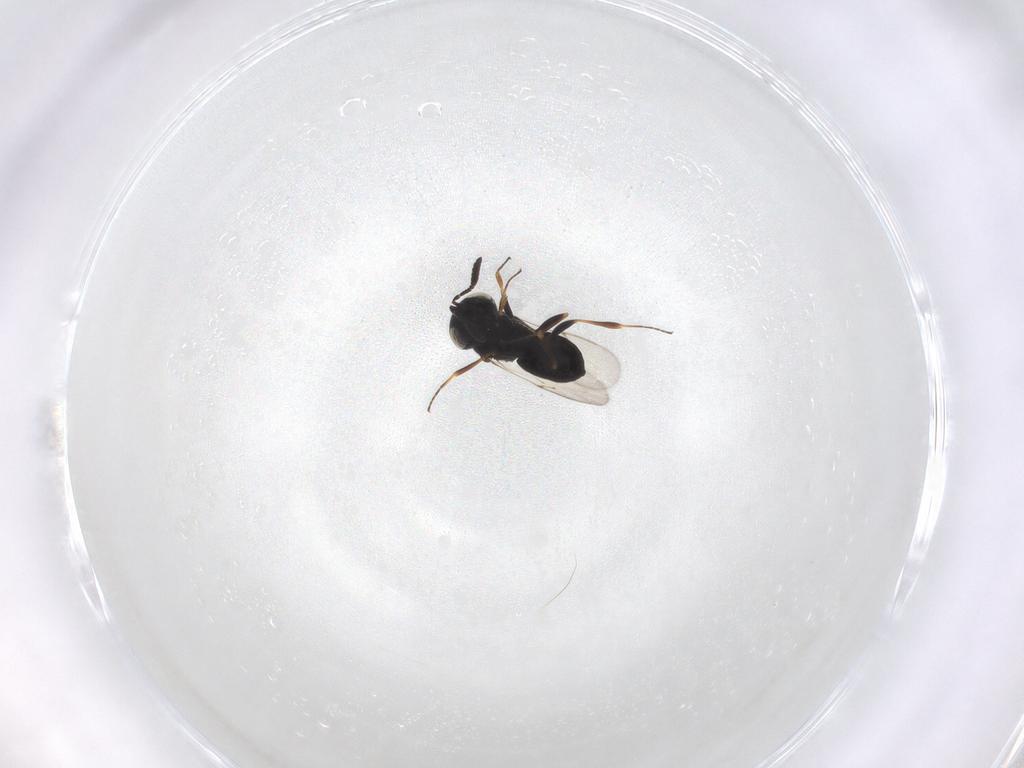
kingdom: Animalia
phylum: Arthropoda
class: Insecta
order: Hymenoptera
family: Scelionidae
